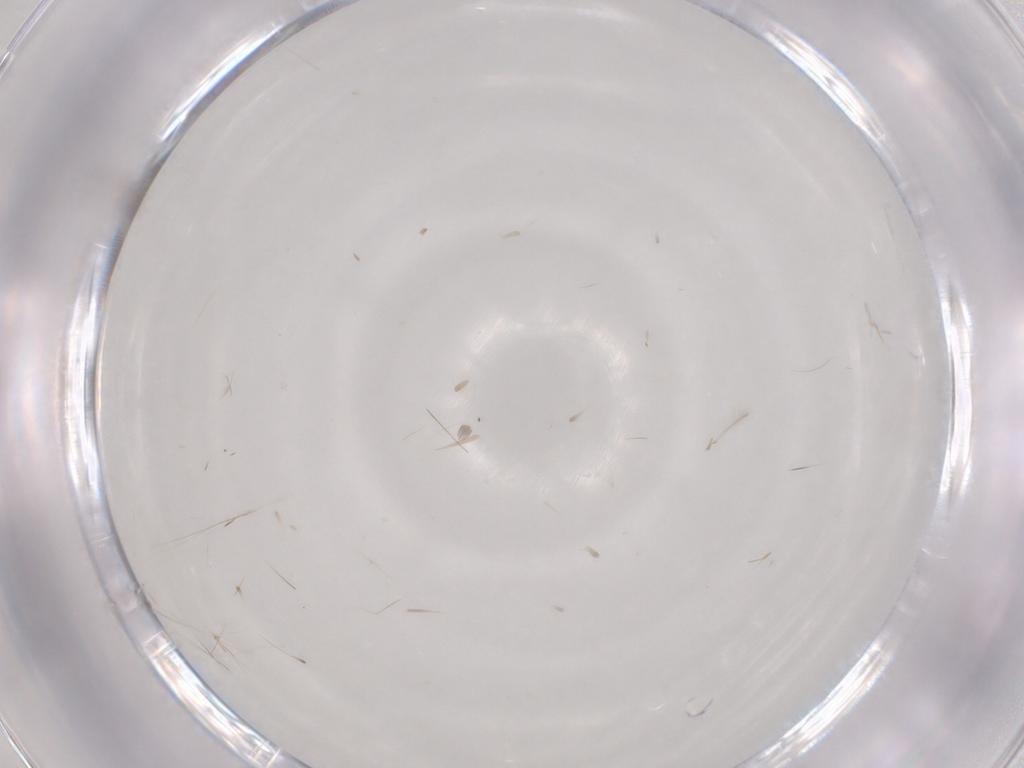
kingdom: Animalia
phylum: Arthropoda
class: Insecta
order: Hymenoptera
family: Mymaridae
